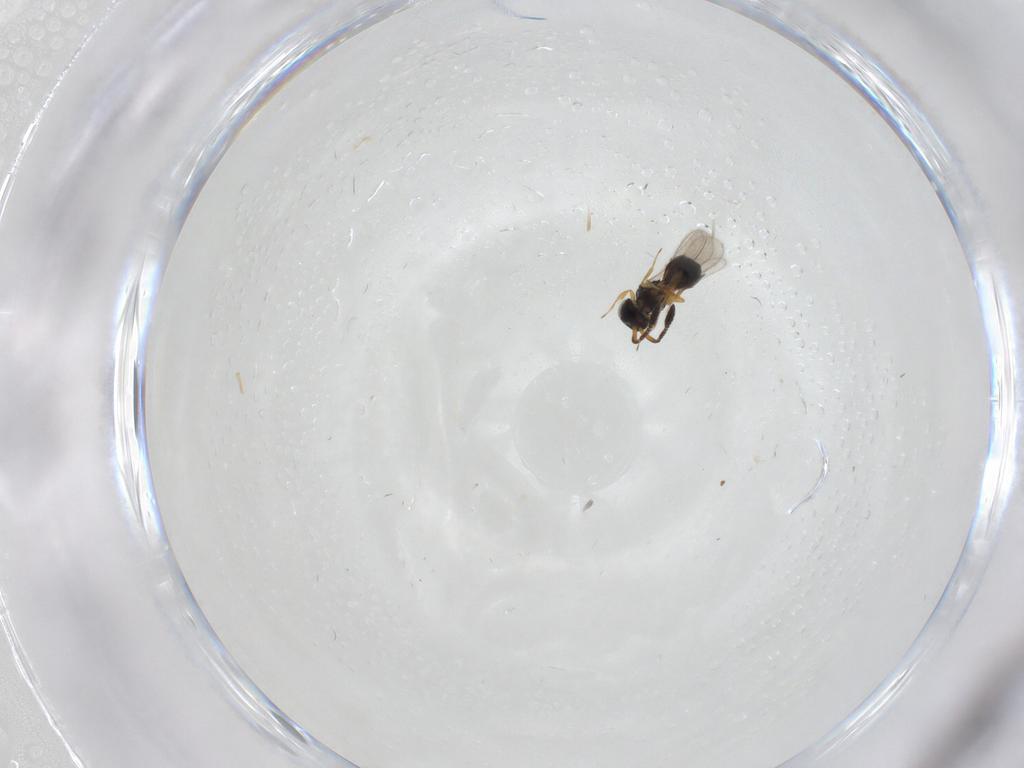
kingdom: Animalia
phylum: Arthropoda
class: Insecta
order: Hymenoptera
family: Scelionidae
